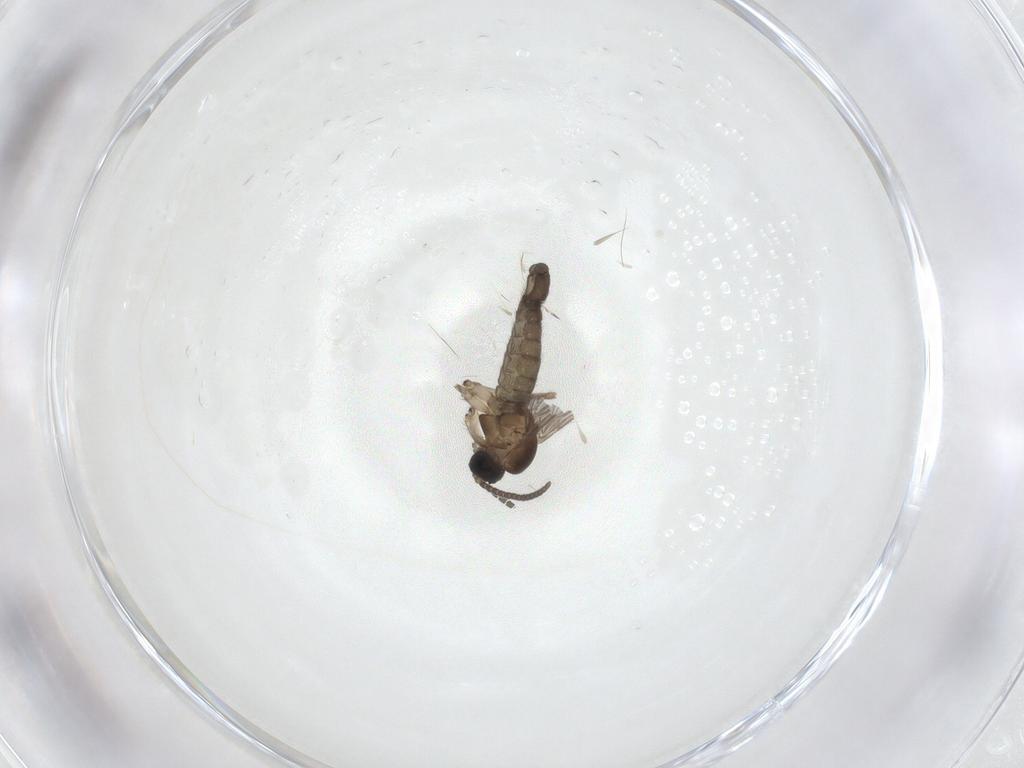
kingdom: Animalia
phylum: Arthropoda
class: Insecta
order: Diptera
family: Sciaridae
